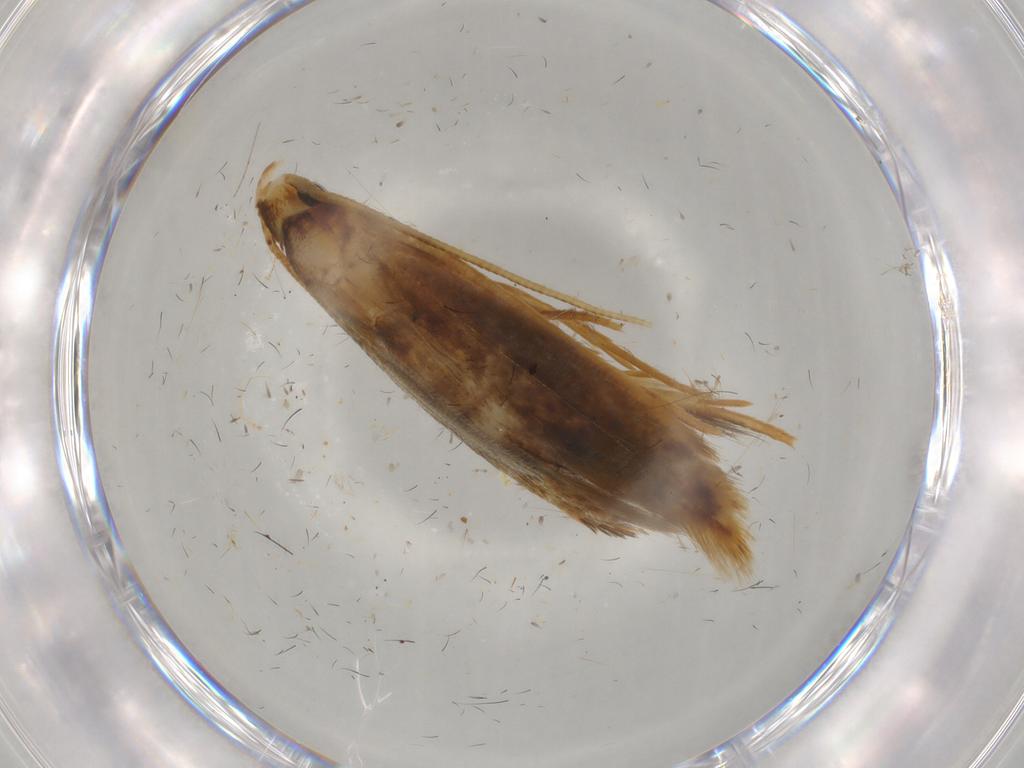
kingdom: Animalia
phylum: Arthropoda
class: Insecta
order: Lepidoptera
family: Tineidae
